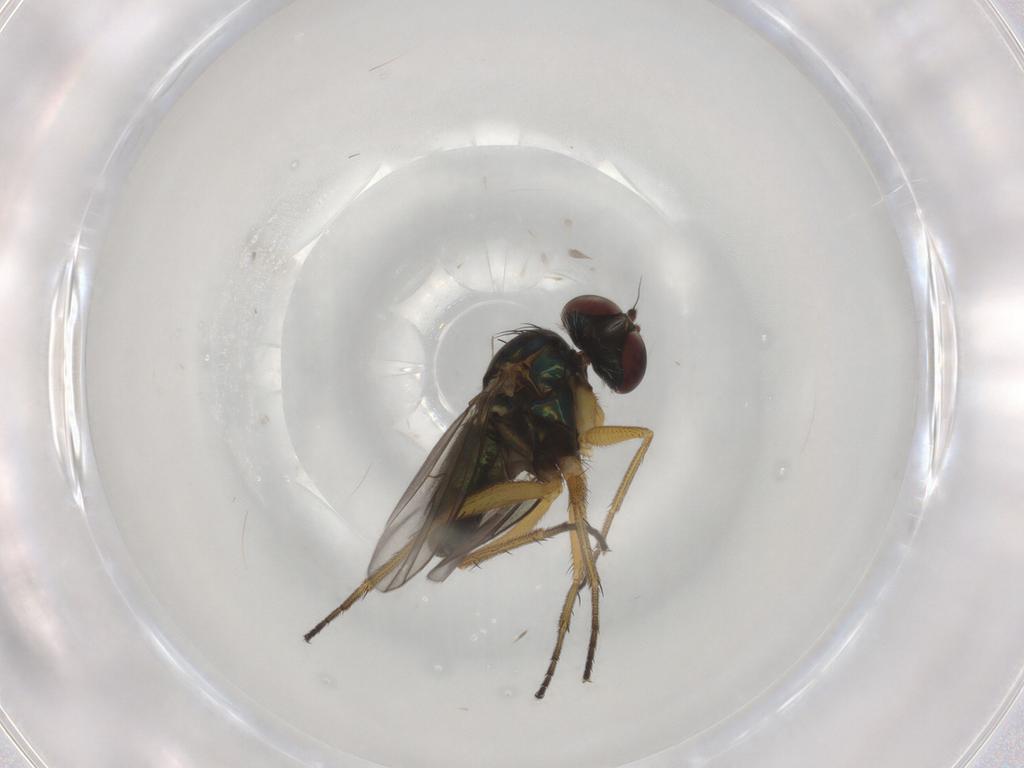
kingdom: Animalia
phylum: Arthropoda
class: Insecta
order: Diptera
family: Dolichopodidae
